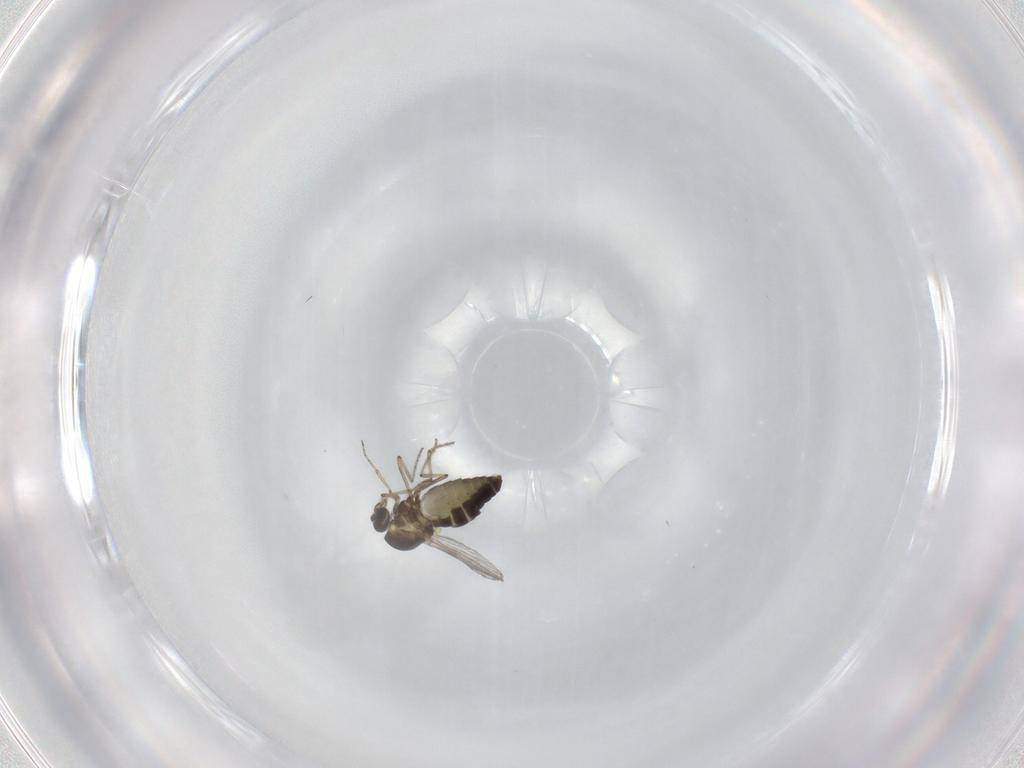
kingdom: Animalia
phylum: Arthropoda
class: Insecta
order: Diptera
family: Ceratopogonidae
